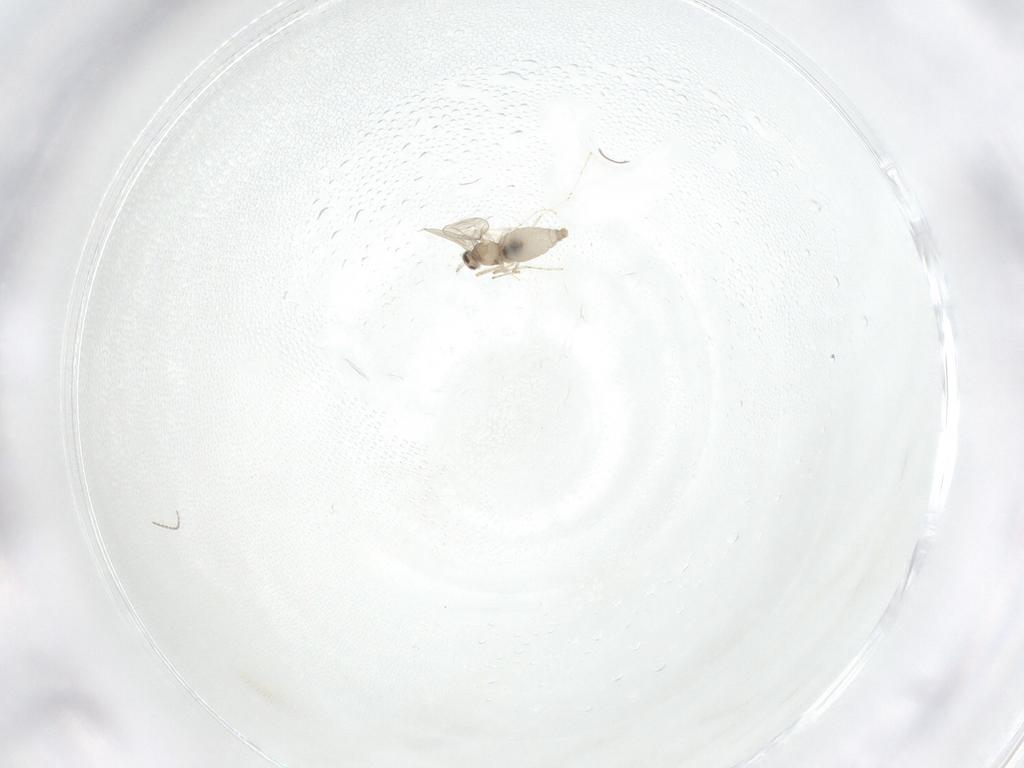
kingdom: Animalia
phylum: Arthropoda
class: Insecta
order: Diptera
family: Cecidomyiidae
